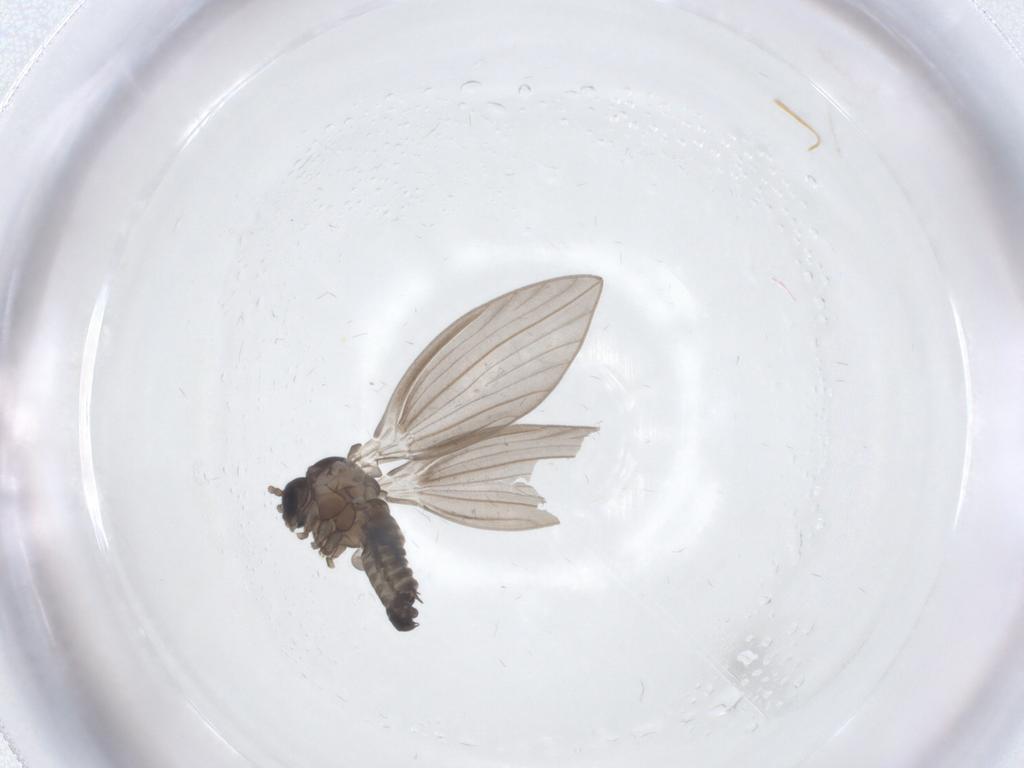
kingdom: Animalia
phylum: Arthropoda
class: Insecta
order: Diptera
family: Psychodidae
